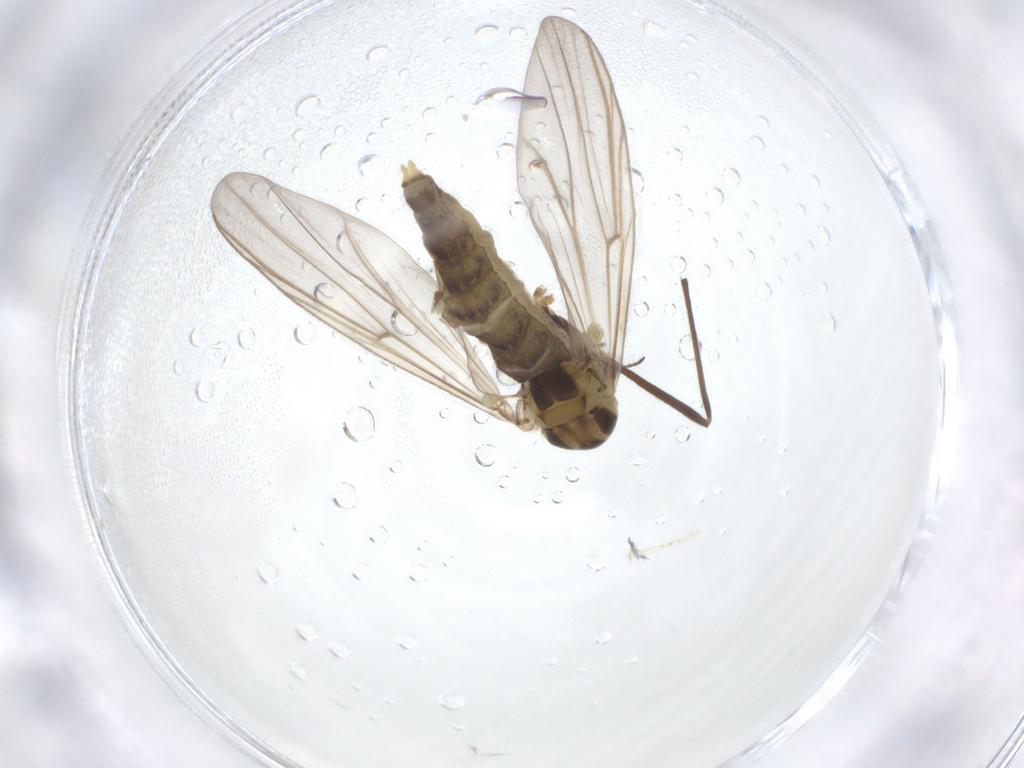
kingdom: Animalia
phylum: Arthropoda
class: Insecta
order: Diptera
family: Chironomidae
